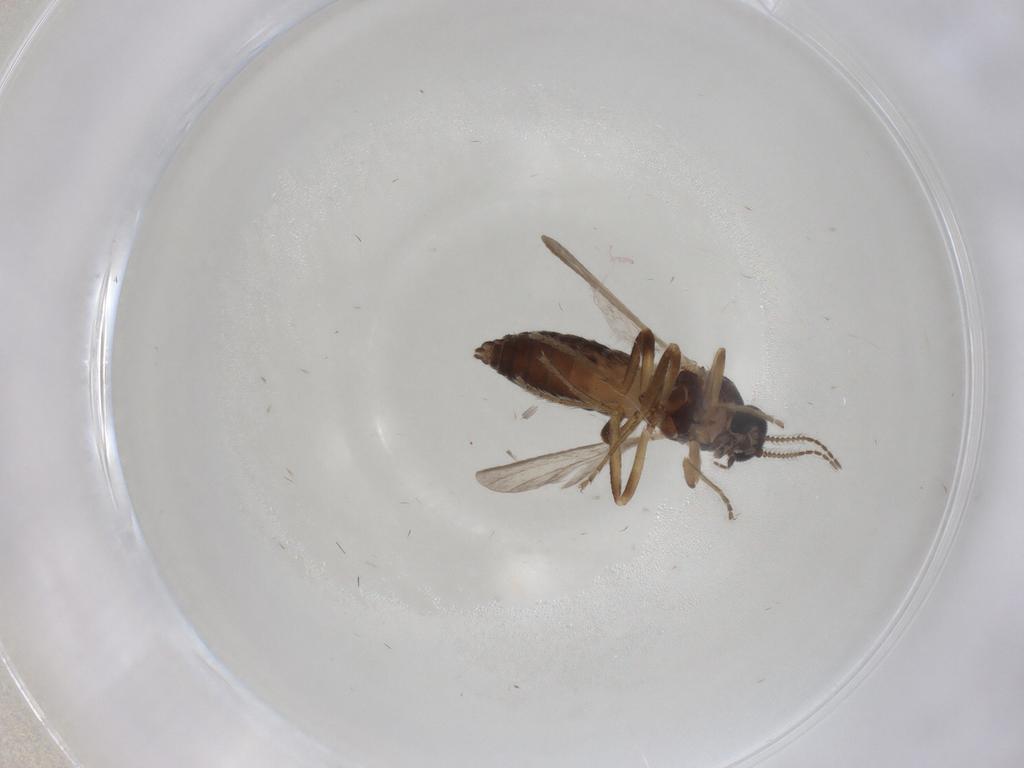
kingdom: Animalia
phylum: Arthropoda
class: Insecta
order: Diptera
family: Ceratopogonidae
